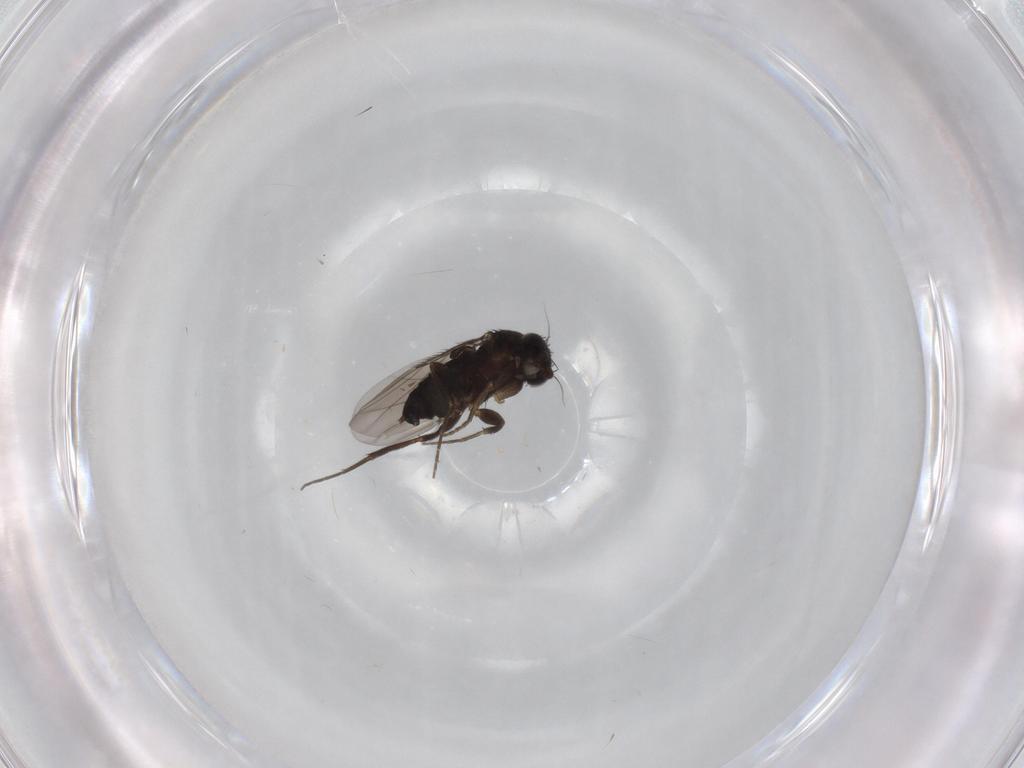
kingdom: Animalia
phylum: Arthropoda
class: Insecta
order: Diptera
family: Phoridae
